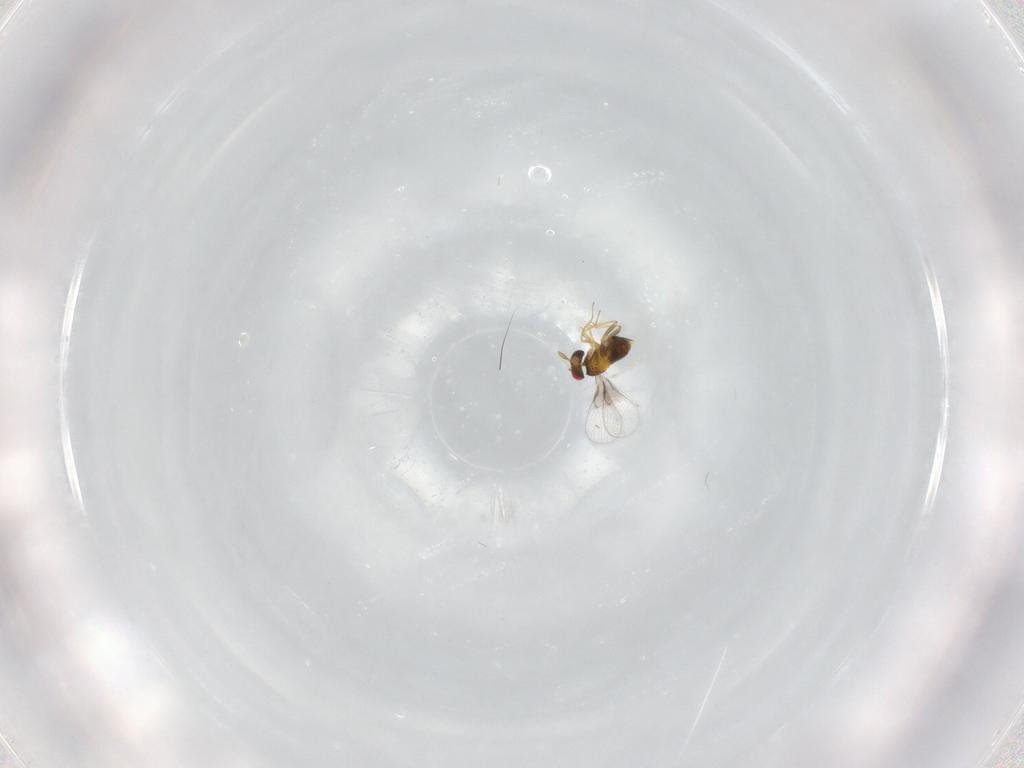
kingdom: Animalia
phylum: Arthropoda
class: Insecta
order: Hymenoptera
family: Trichogrammatidae
